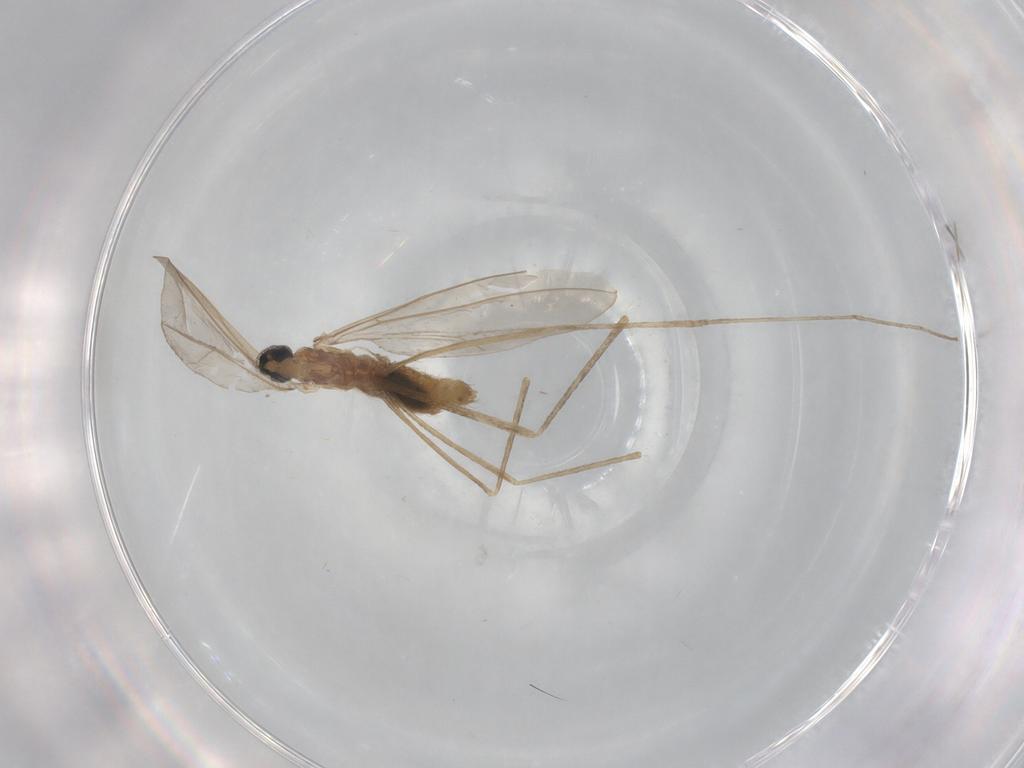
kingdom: Animalia
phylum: Arthropoda
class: Insecta
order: Diptera
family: Cecidomyiidae
